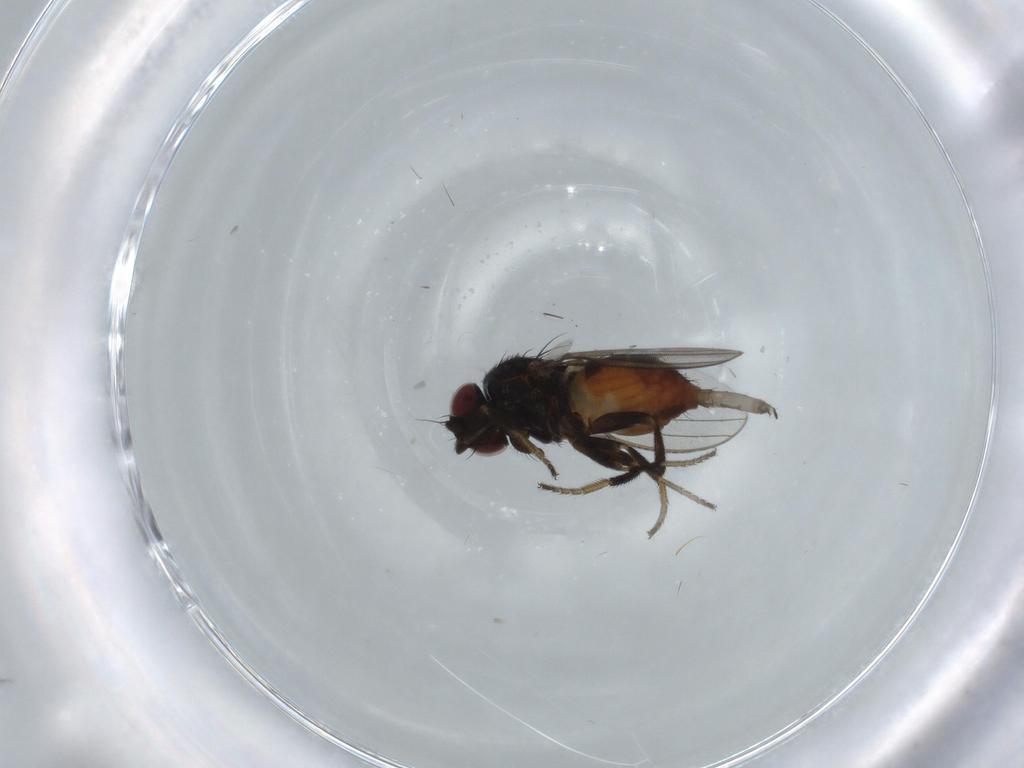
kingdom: Animalia
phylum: Arthropoda
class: Insecta
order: Diptera
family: Milichiidae
